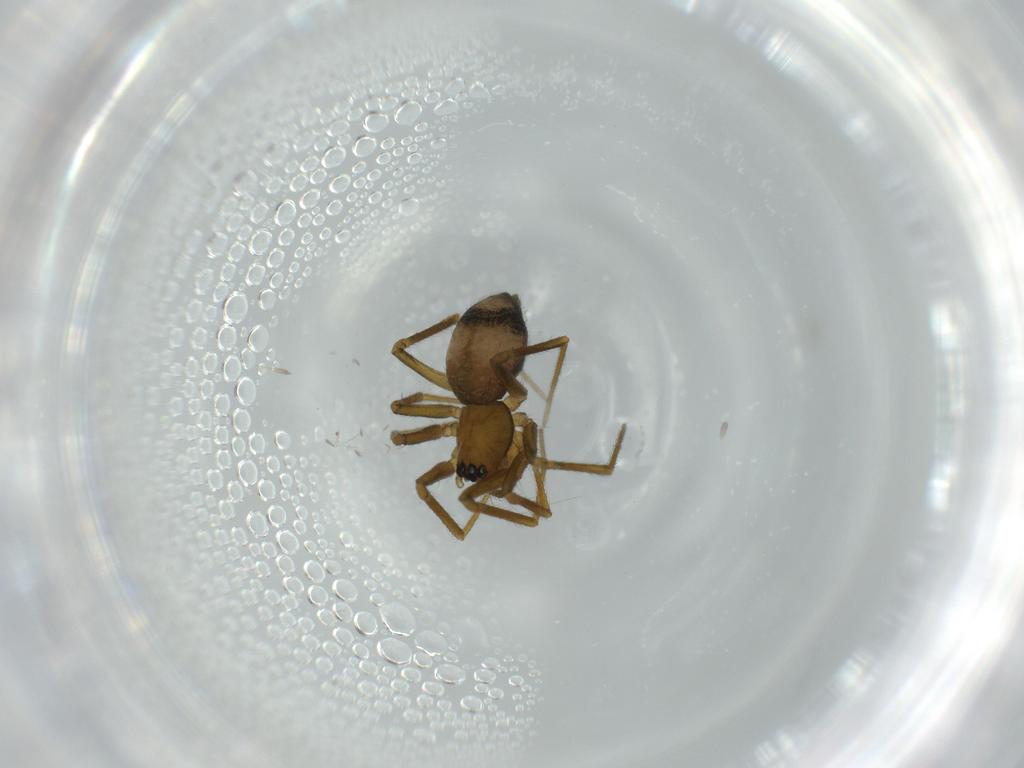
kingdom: Animalia
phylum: Arthropoda
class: Arachnida
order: Araneae
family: Linyphiidae
